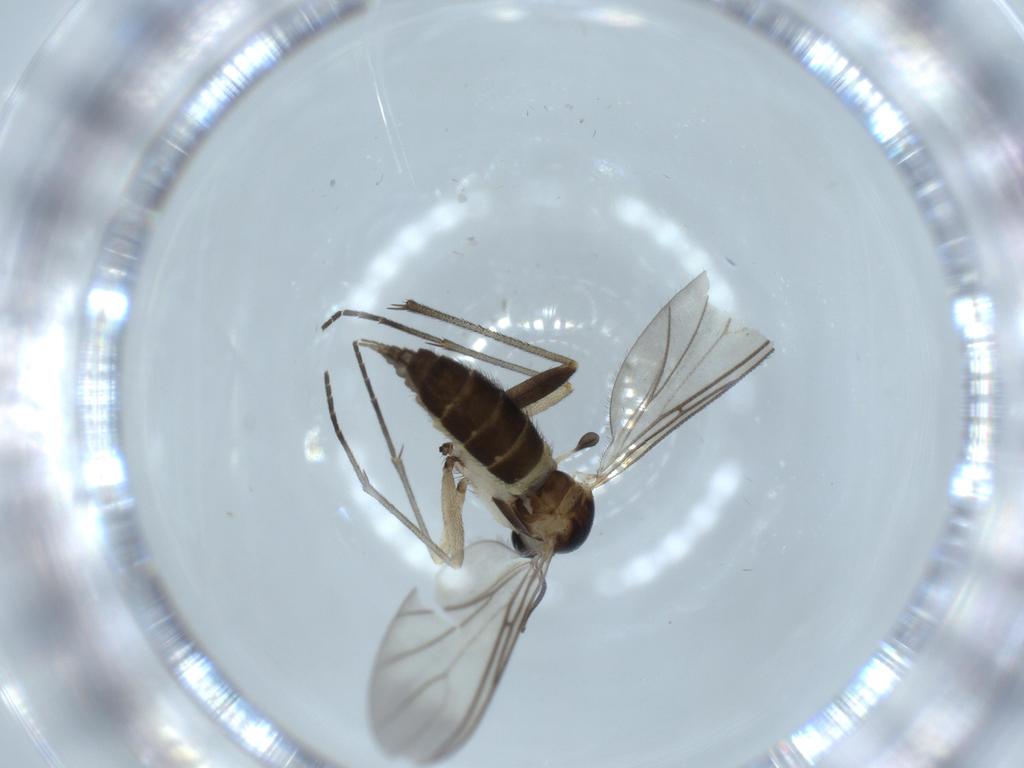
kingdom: Animalia
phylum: Arthropoda
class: Insecta
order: Diptera
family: Sciaridae
